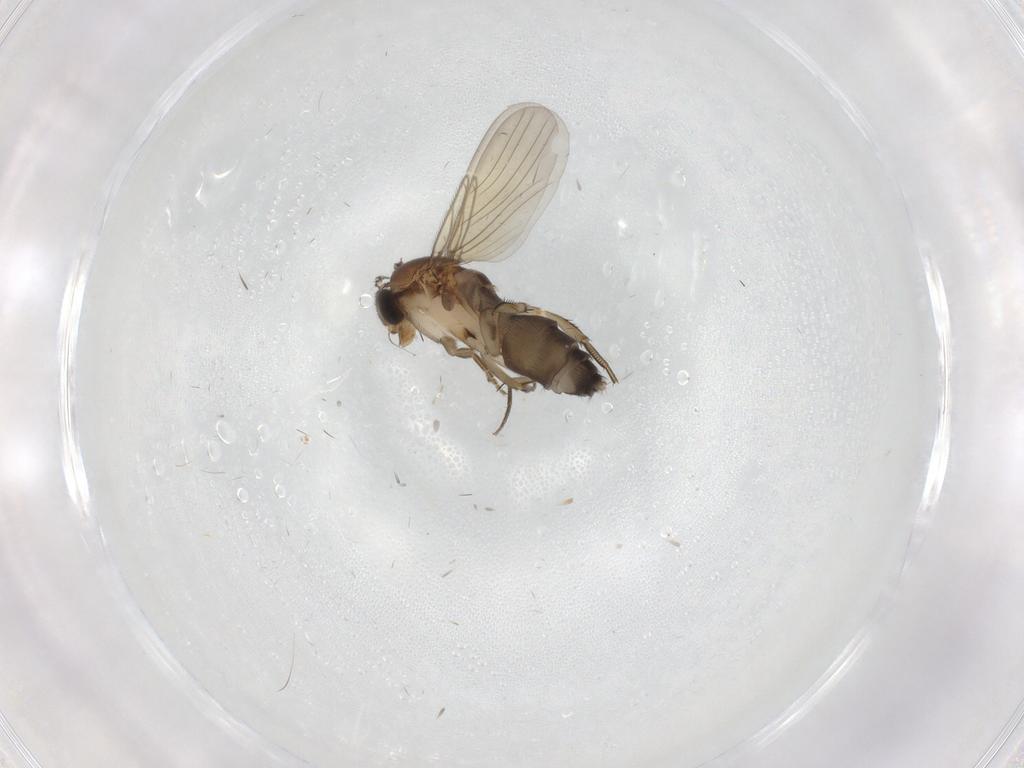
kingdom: Animalia
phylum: Arthropoda
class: Insecta
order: Diptera
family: Phoridae
